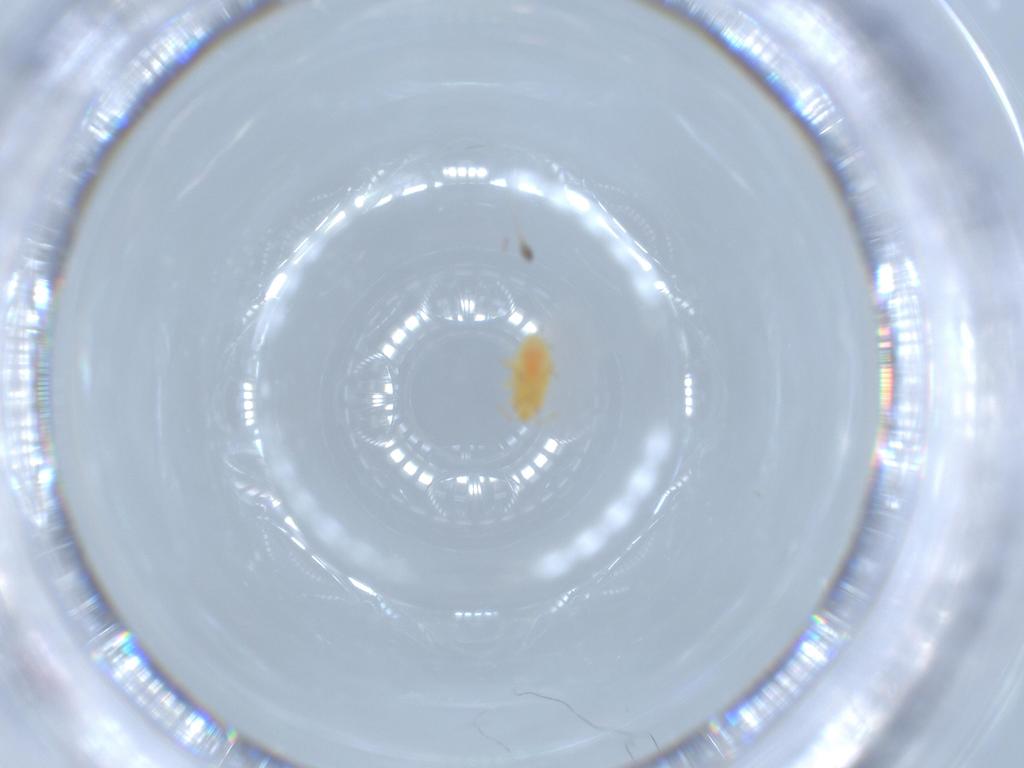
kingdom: Animalia
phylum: Arthropoda
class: Insecta
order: Hemiptera
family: Anthocoridae
